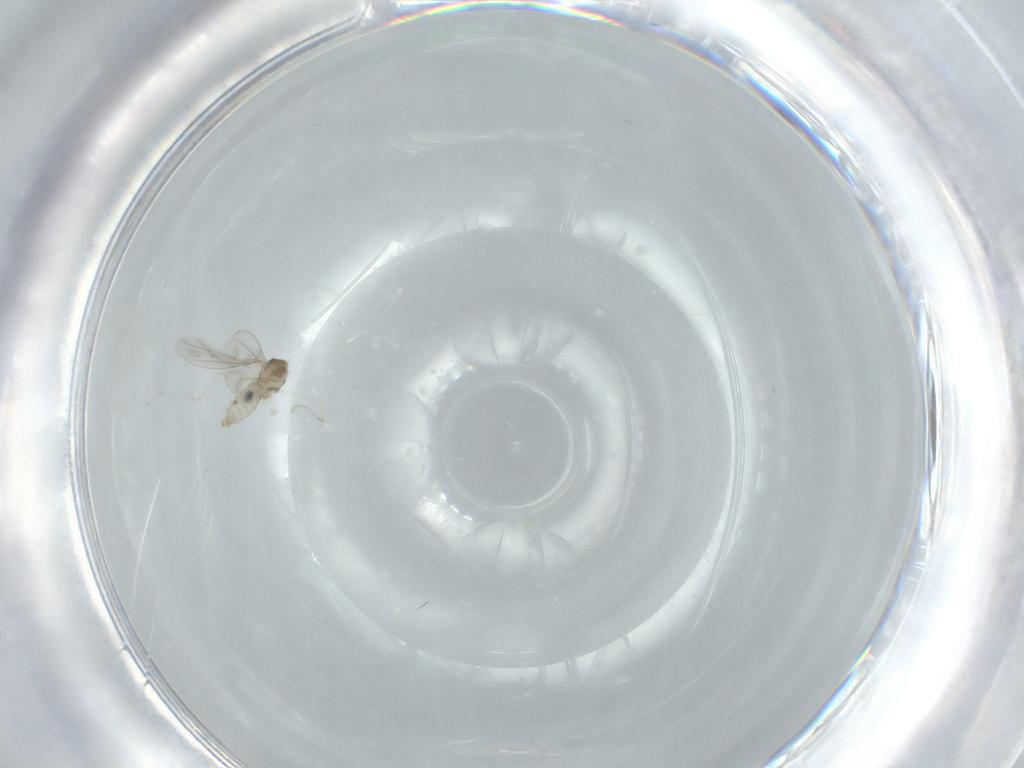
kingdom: Animalia
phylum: Arthropoda
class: Insecta
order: Diptera
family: Cecidomyiidae
